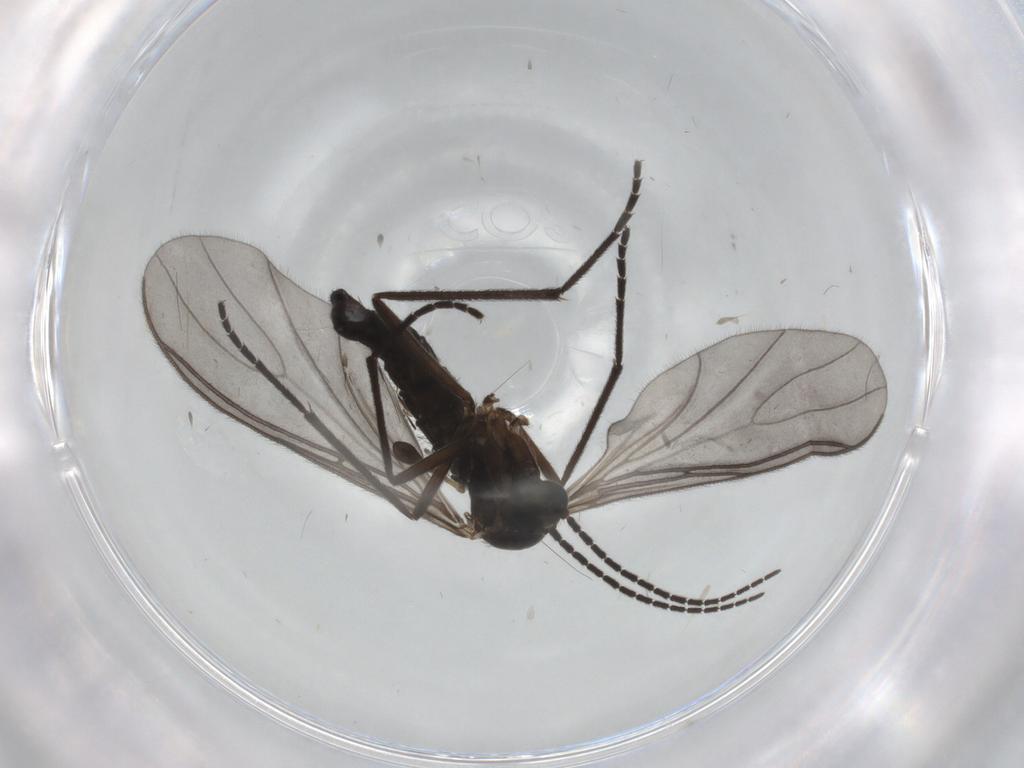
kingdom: Animalia
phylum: Arthropoda
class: Insecta
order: Diptera
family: Sciaridae
